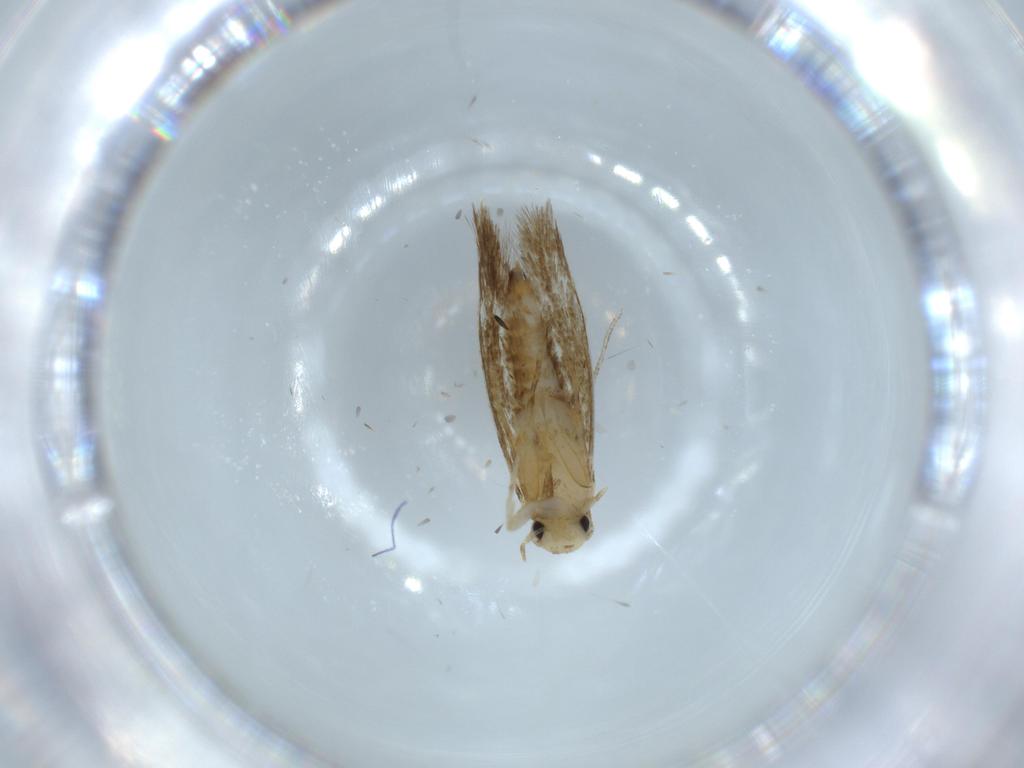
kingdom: Animalia
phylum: Arthropoda
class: Insecta
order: Lepidoptera
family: Tineidae
